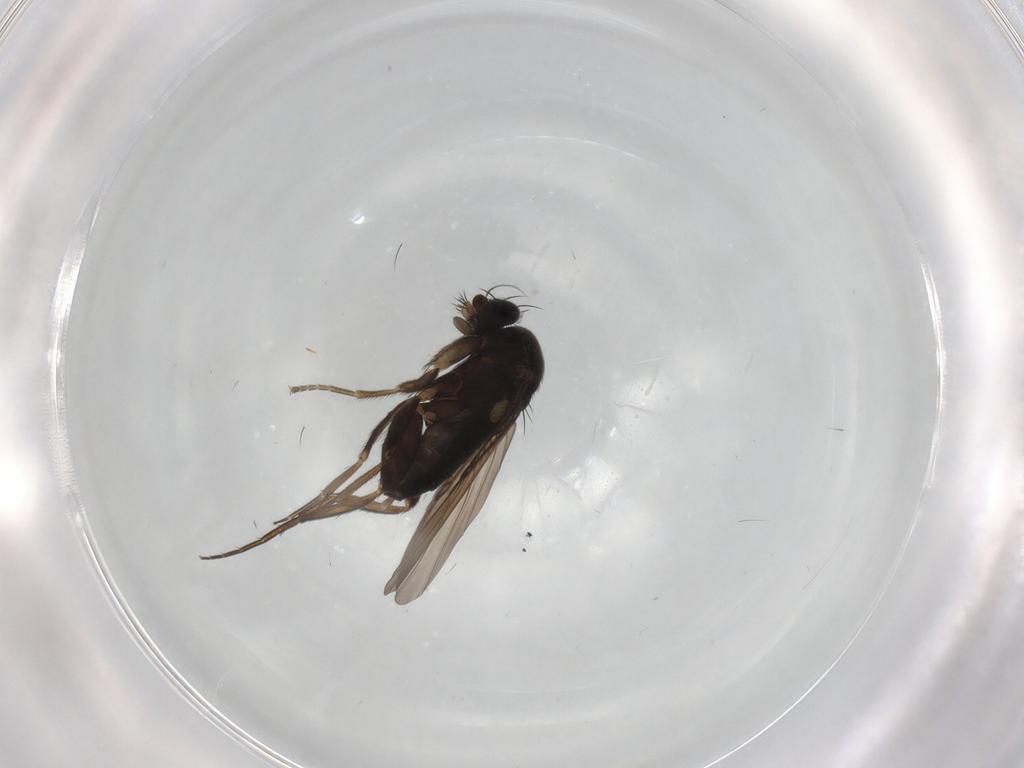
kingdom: Animalia
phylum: Arthropoda
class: Insecta
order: Diptera
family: Phoridae
